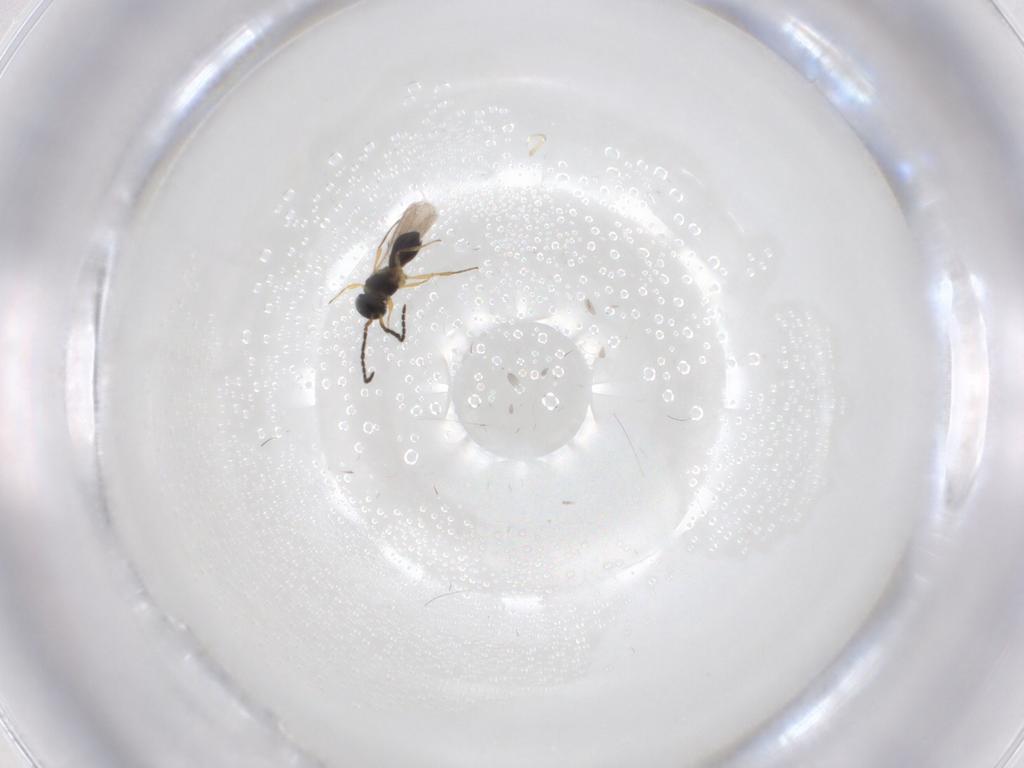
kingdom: Animalia
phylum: Arthropoda
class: Insecta
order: Hymenoptera
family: Scelionidae
